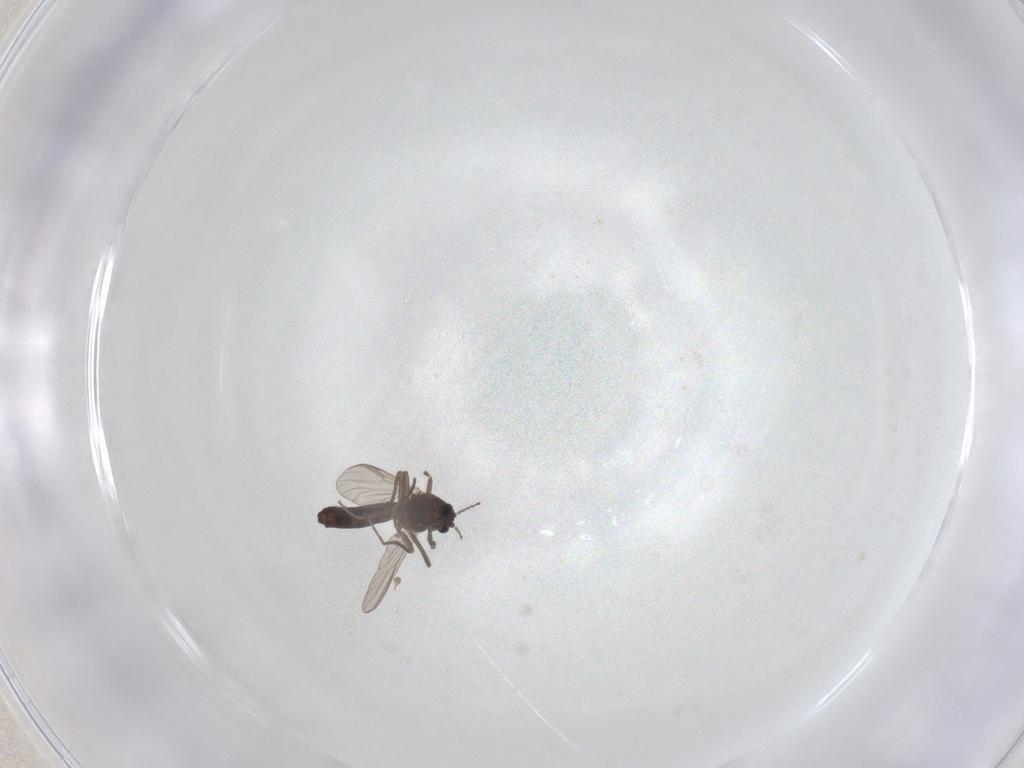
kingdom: Animalia
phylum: Arthropoda
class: Insecta
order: Diptera
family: Chironomidae
